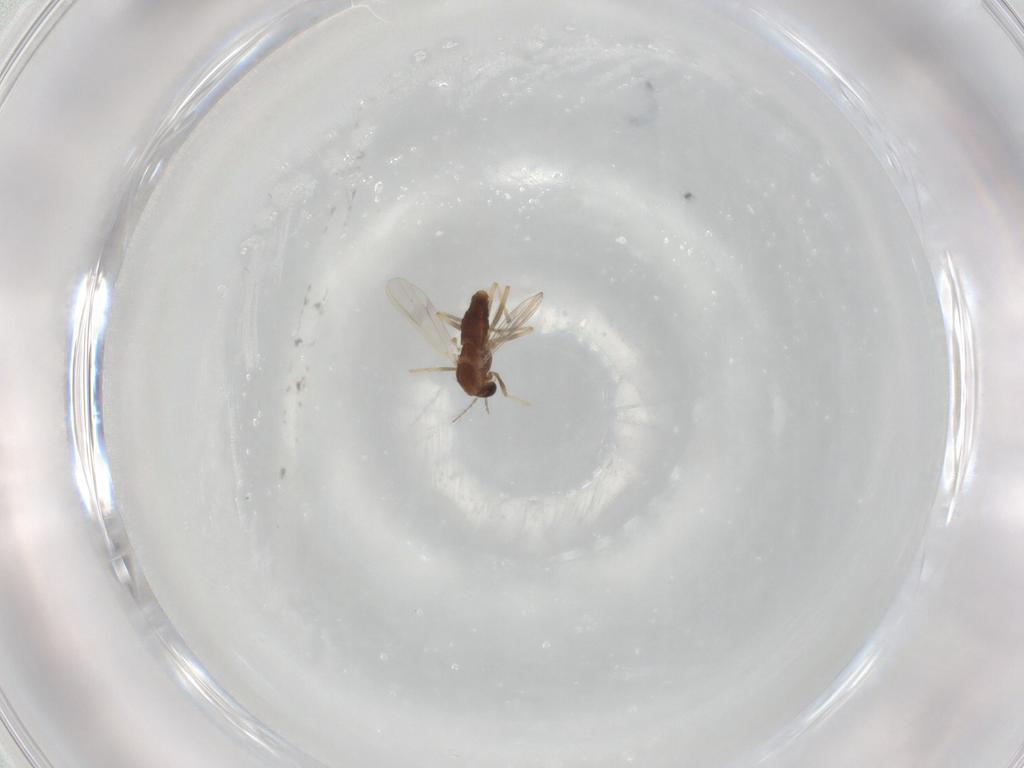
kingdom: Animalia
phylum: Arthropoda
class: Insecta
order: Diptera
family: Chironomidae
